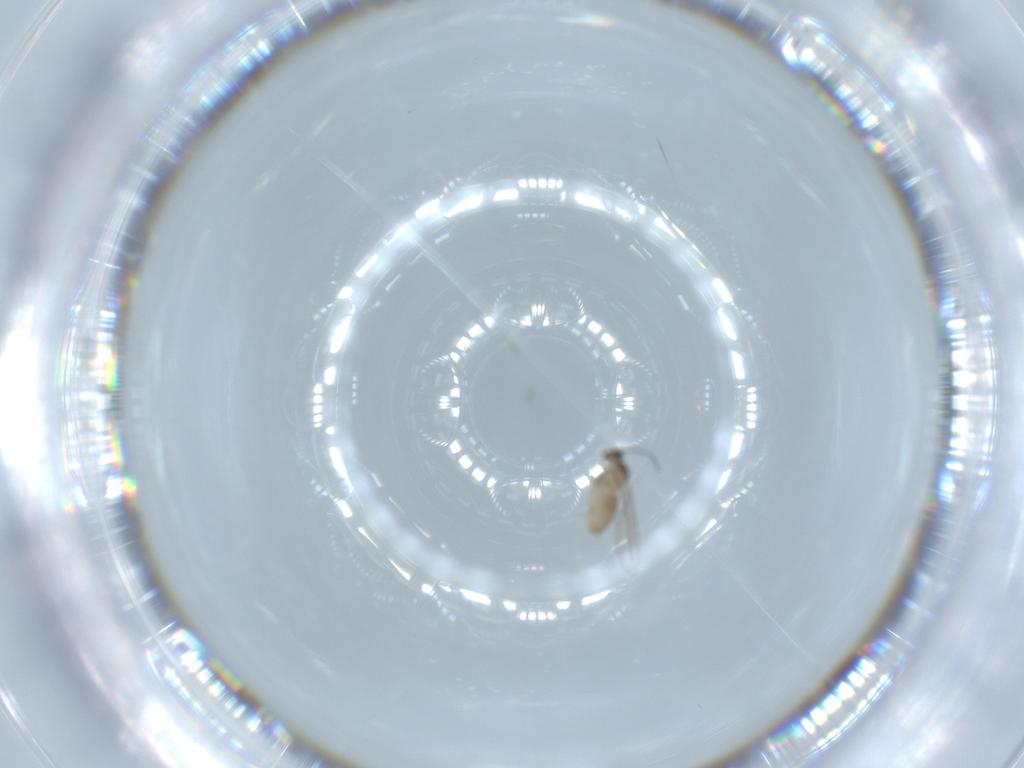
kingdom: Animalia
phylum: Arthropoda
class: Insecta
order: Diptera
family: Cecidomyiidae
